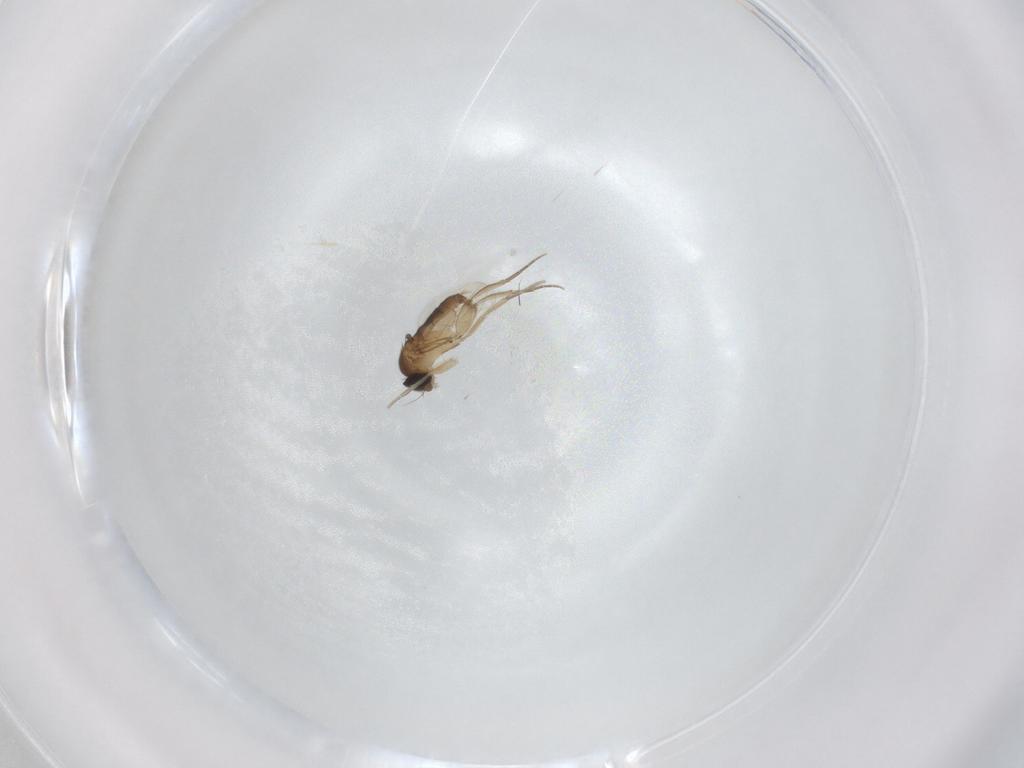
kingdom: Animalia
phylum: Arthropoda
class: Insecta
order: Diptera
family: Phoridae
